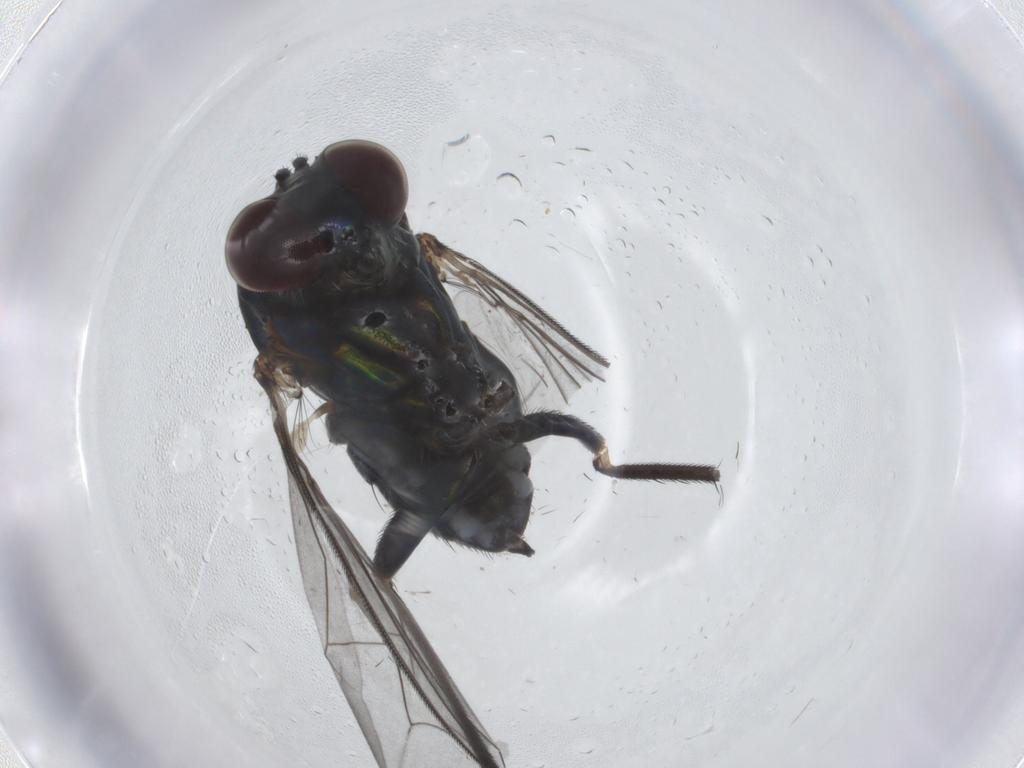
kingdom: Animalia
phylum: Arthropoda
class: Insecta
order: Diptera
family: Dolichopodidae
